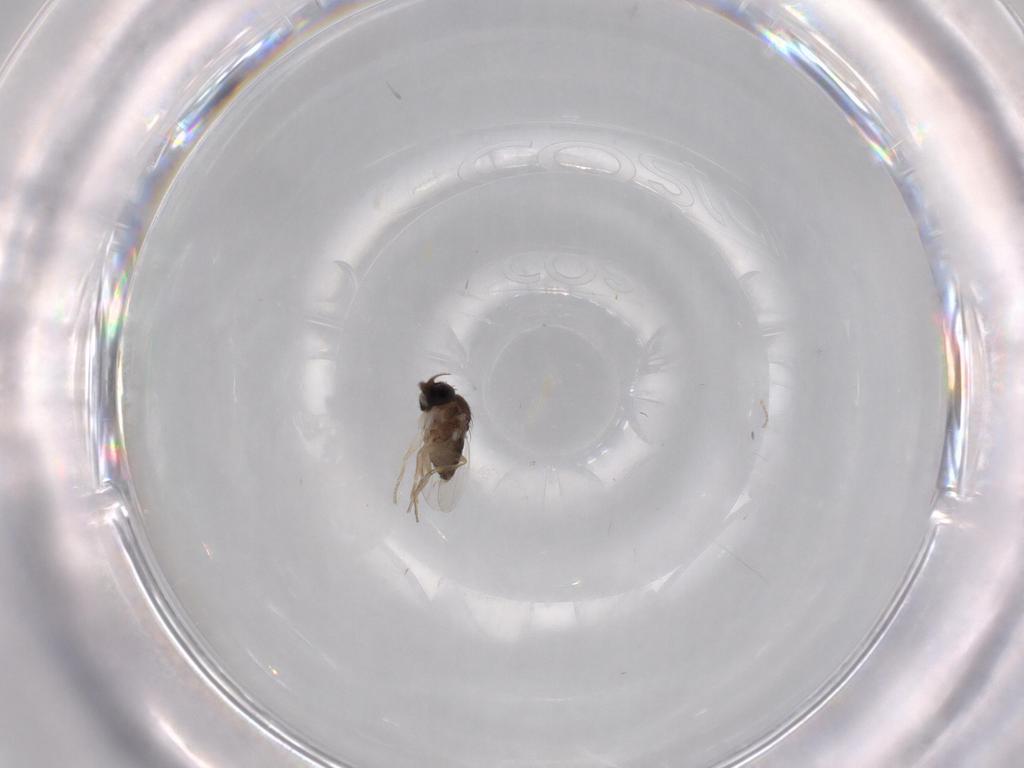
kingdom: Animalia
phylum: Arthropoda
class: Insecta
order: Diptera
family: Phoridae
